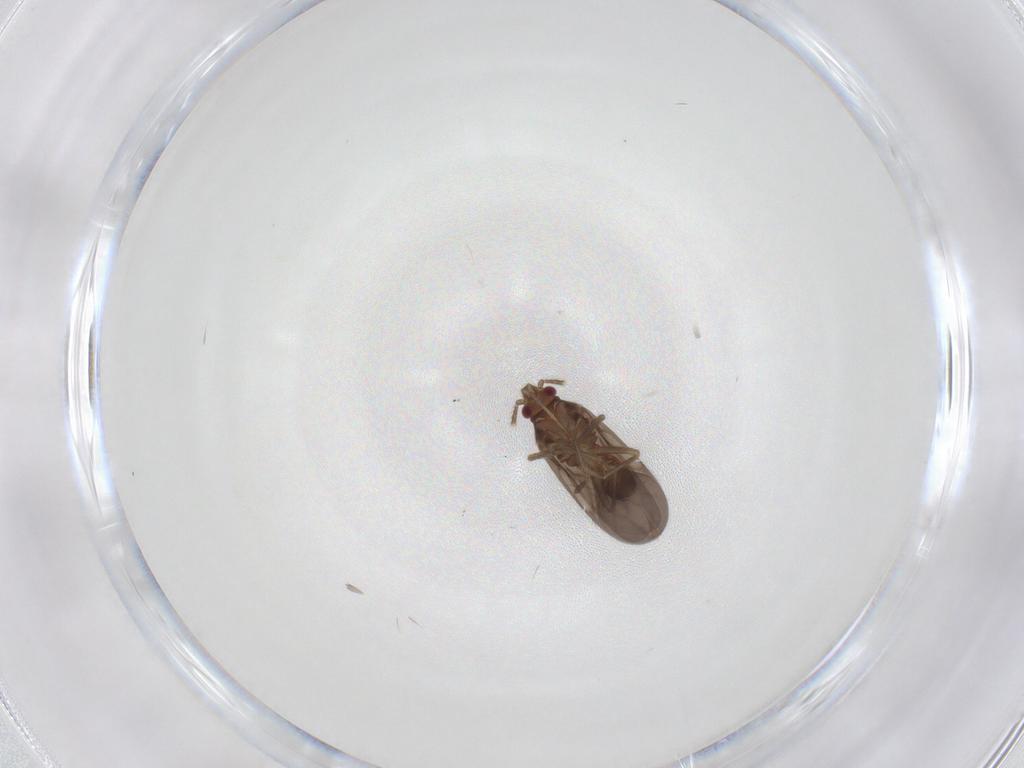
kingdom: Animalia
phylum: Arthropoda
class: Insecta
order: Hemiptera
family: Ceratocombidae
